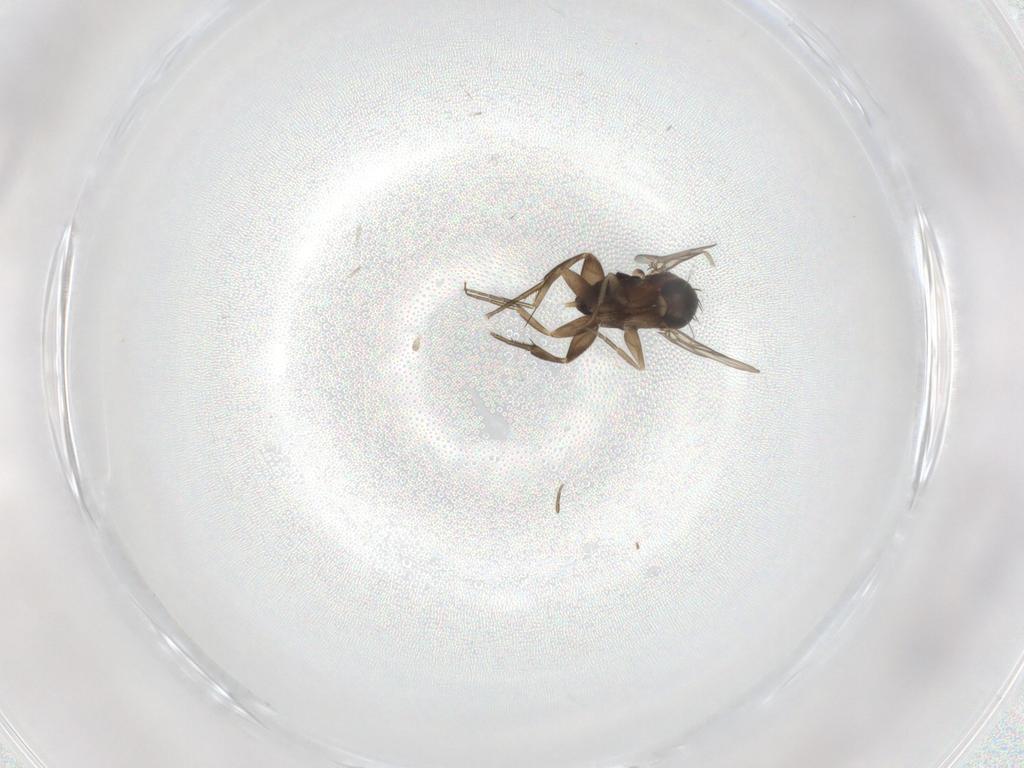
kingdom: Animalia
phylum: Arthropoda
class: Insecta
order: Diptera
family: Phoridae
